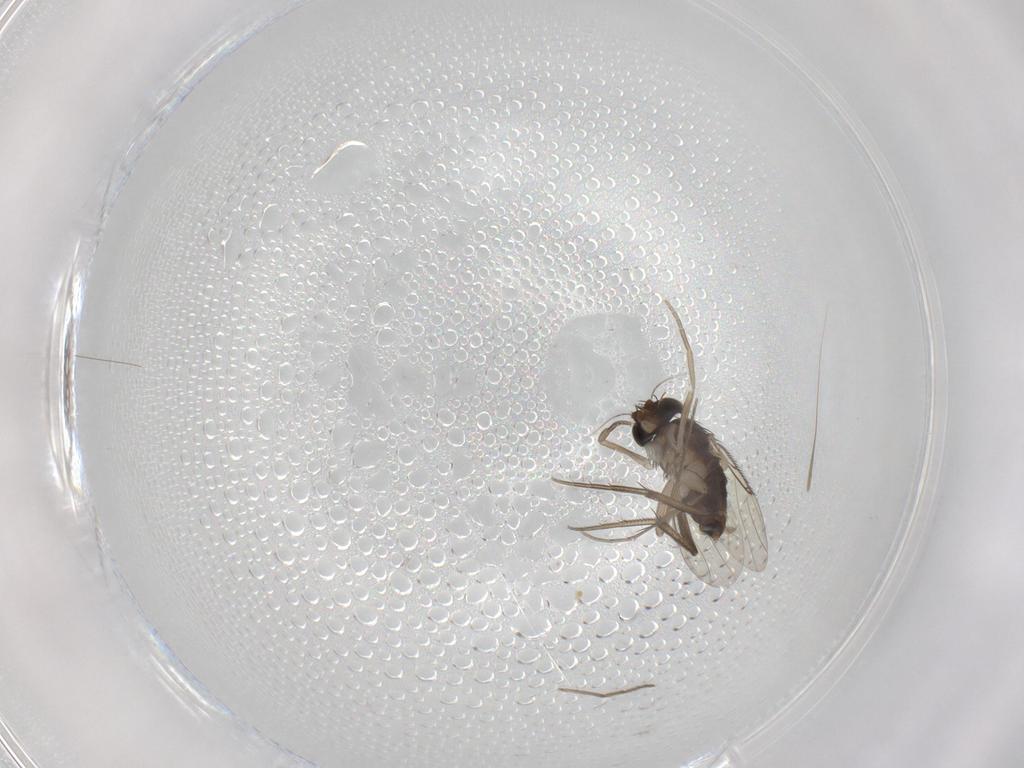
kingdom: Animalia
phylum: Arthropoda
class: Insecta
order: Diptera
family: Phoridae
